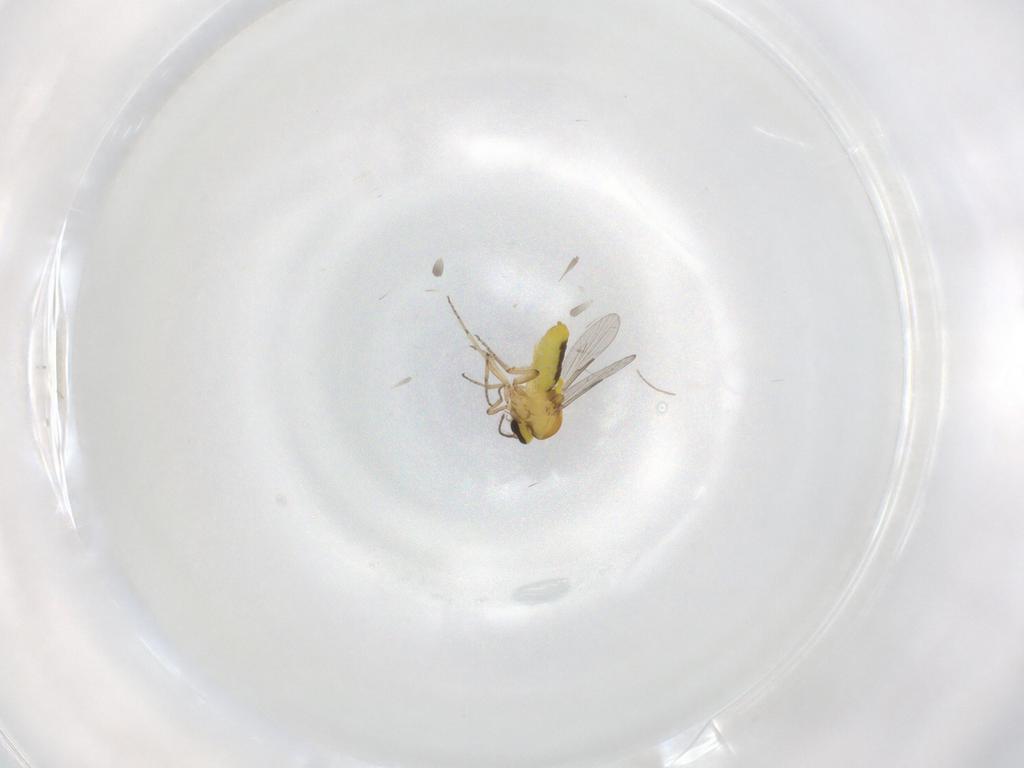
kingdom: Animalia
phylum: Arthropoda
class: Insecta
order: Diptera
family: Ceratopogonidae
